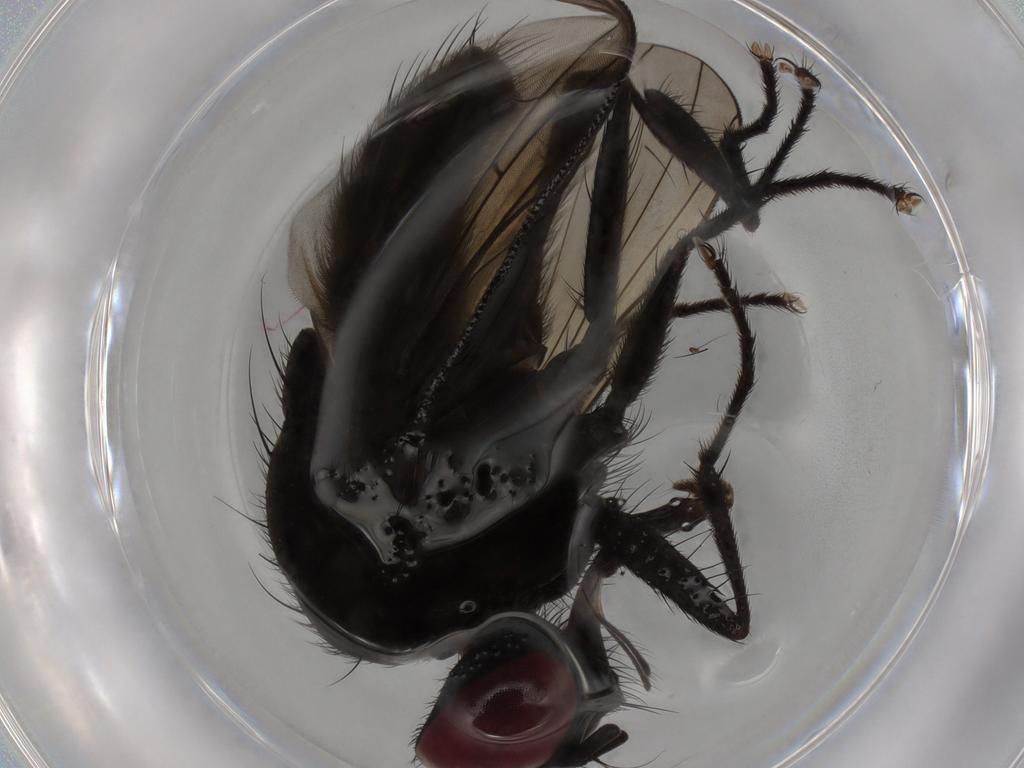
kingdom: Animalia
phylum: Arthropoda
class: Insecta
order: Diptera
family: Muscidae
